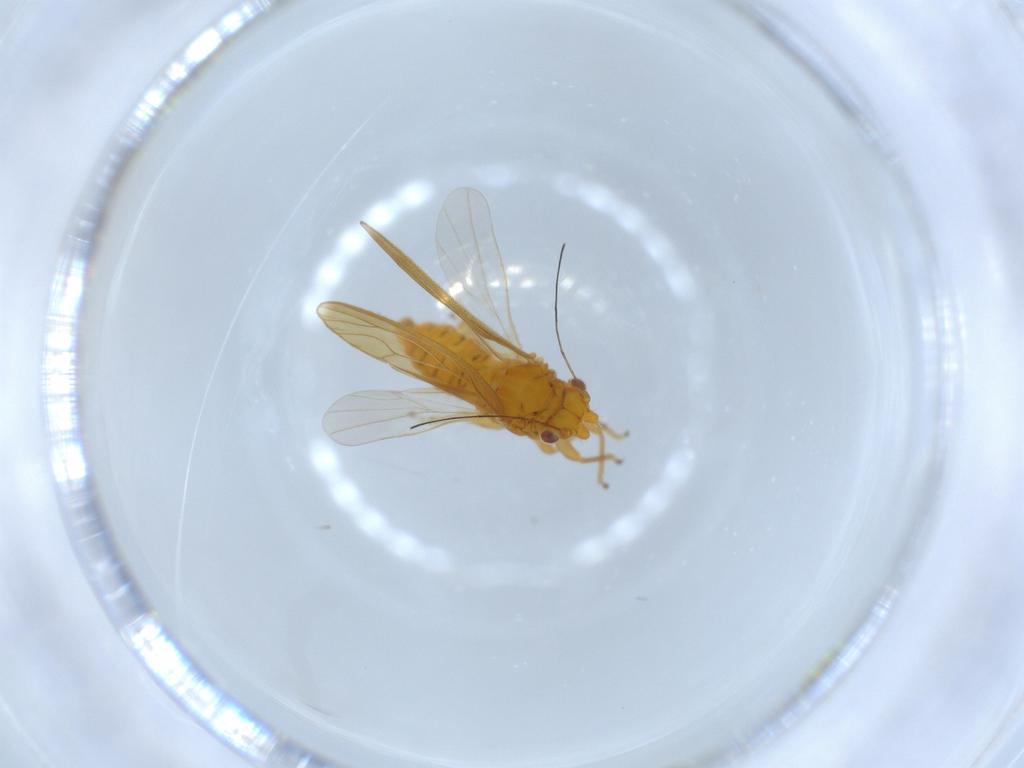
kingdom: Animalia
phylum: Arthropoda
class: Insecta
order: Hemiptera
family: Psyllidae
